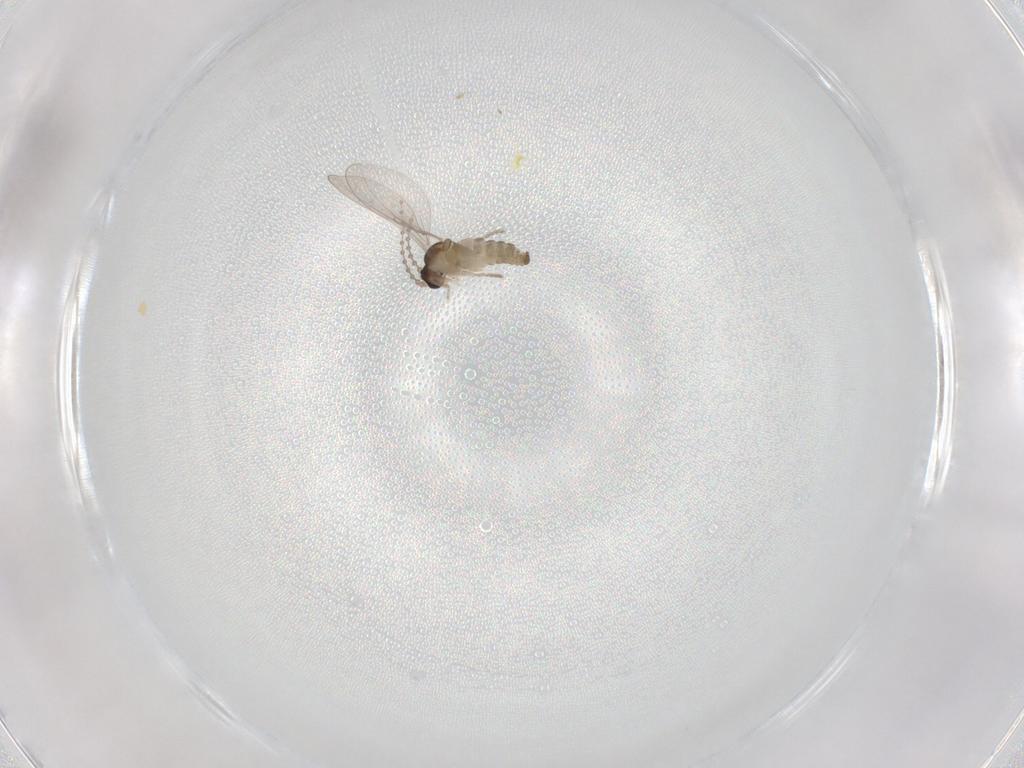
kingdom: Animalia
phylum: Arthropoda
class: Insecta
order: Diptera
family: Cecidomyiidae
